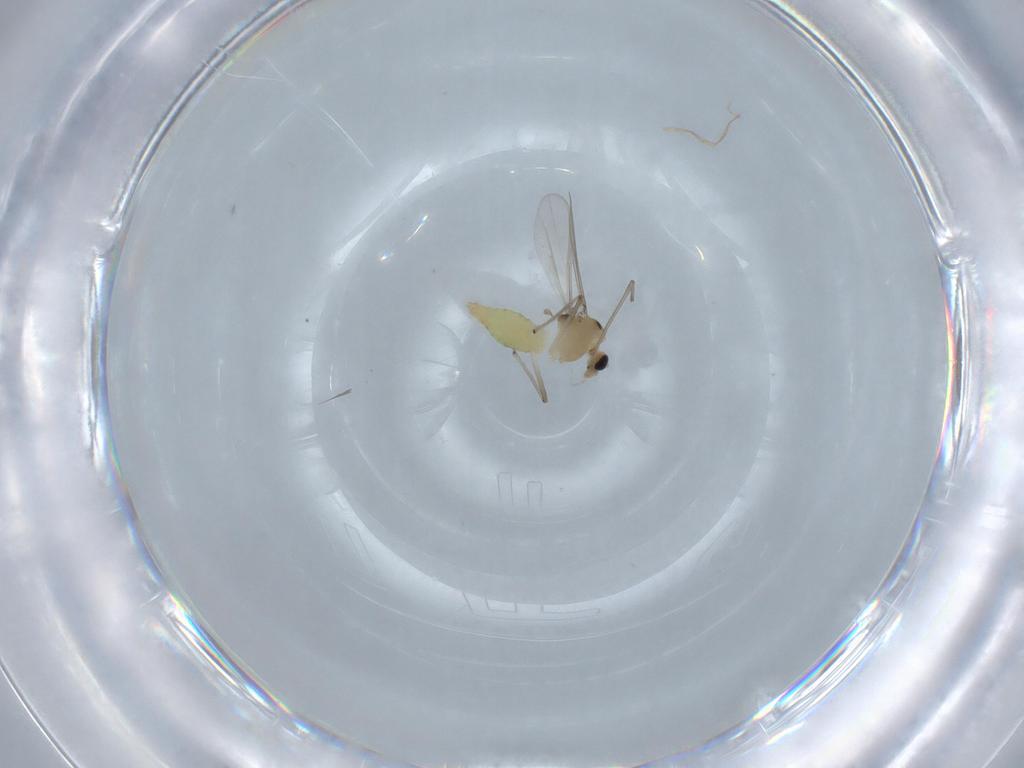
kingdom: Animalia
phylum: Arthropoda
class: Insecta
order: Diptera
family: Chironomidae
